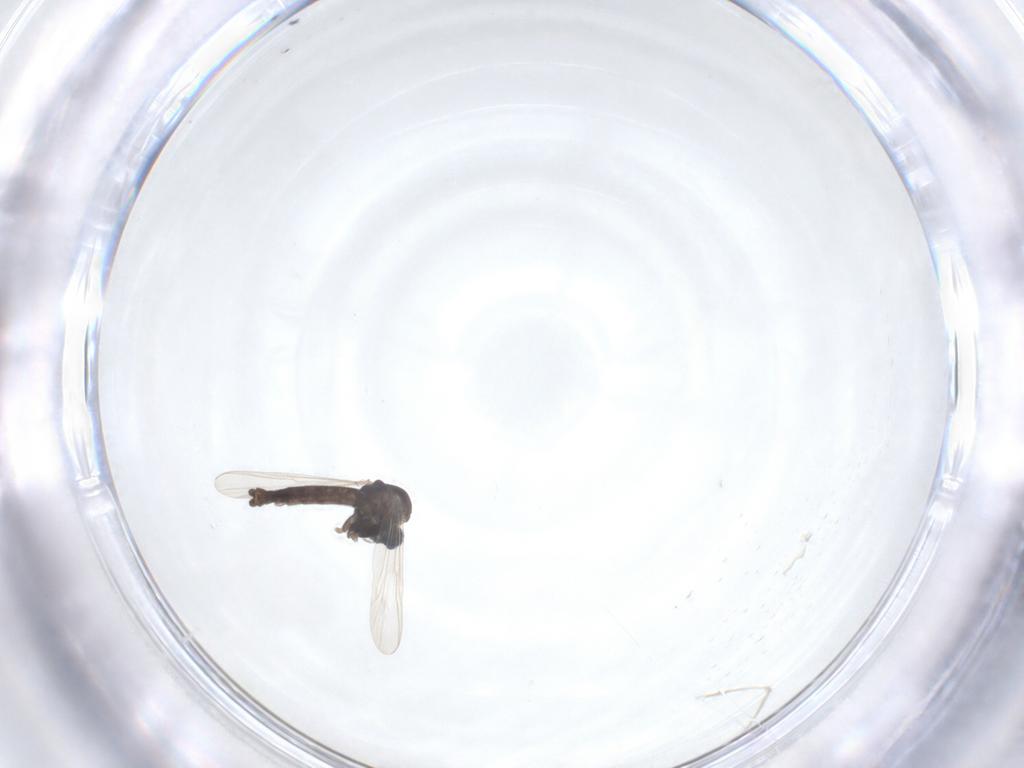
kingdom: Animalia
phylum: Arthropoda
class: Insecta
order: Diptera
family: Chironomidae
